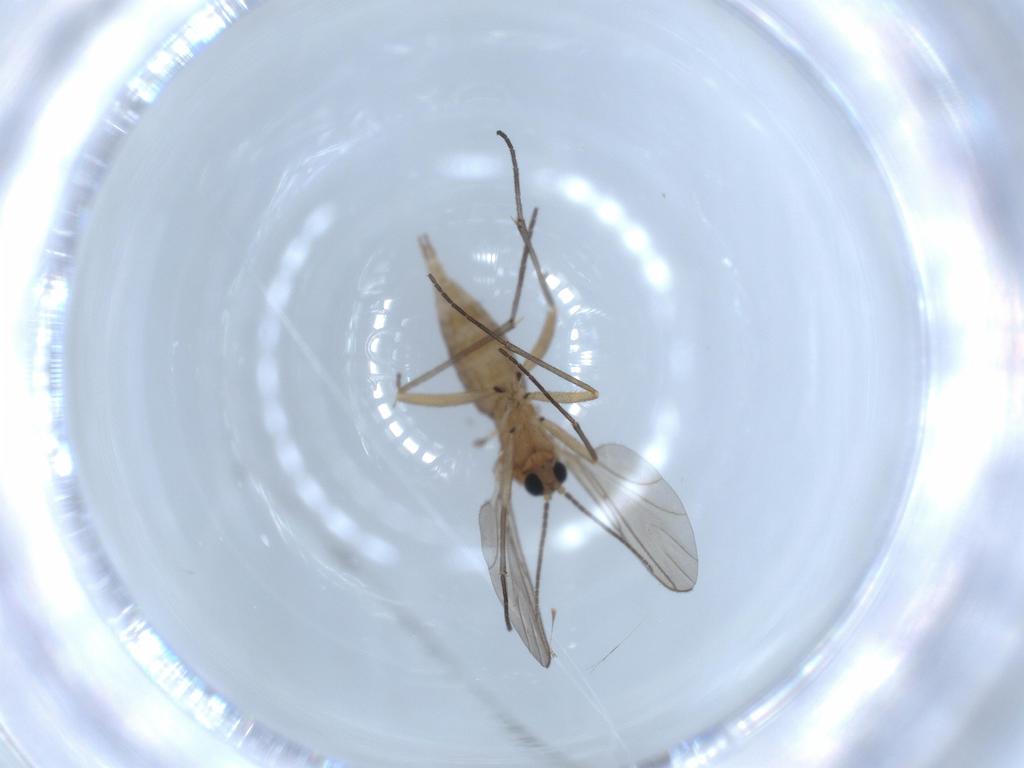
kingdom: Animalia
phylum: Arthropoda
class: Insecta
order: Diptera
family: Sciaridae
